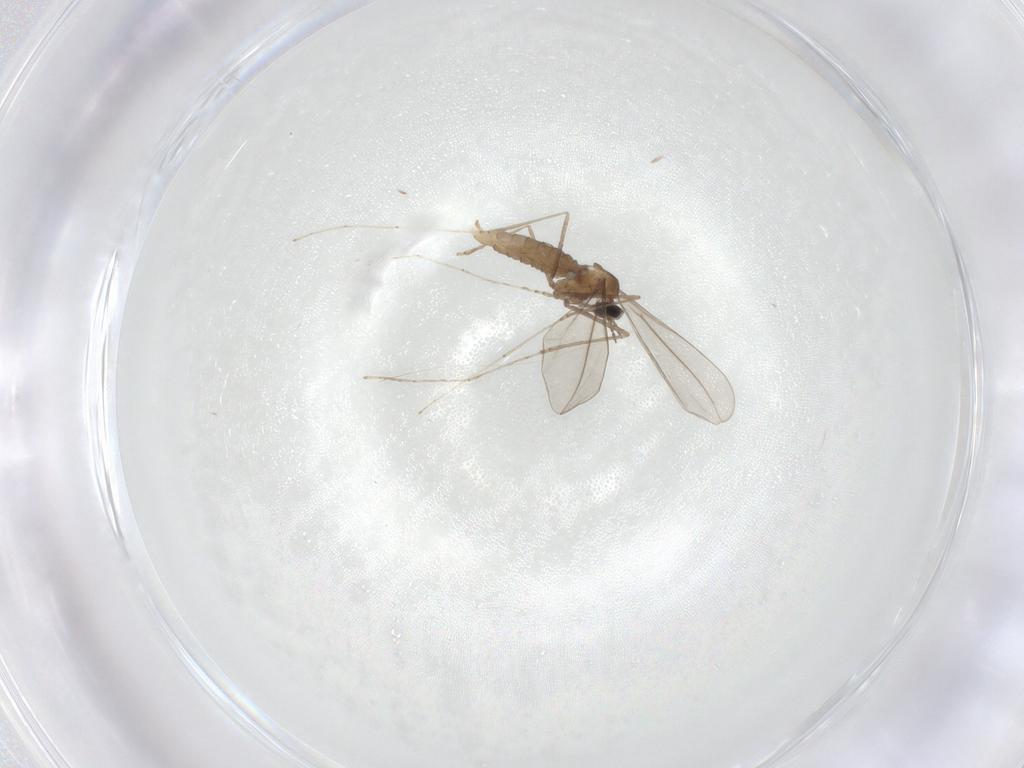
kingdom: Animalia
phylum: Arthropoda
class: Insecta
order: Diptera
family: Cecidomyiidae
